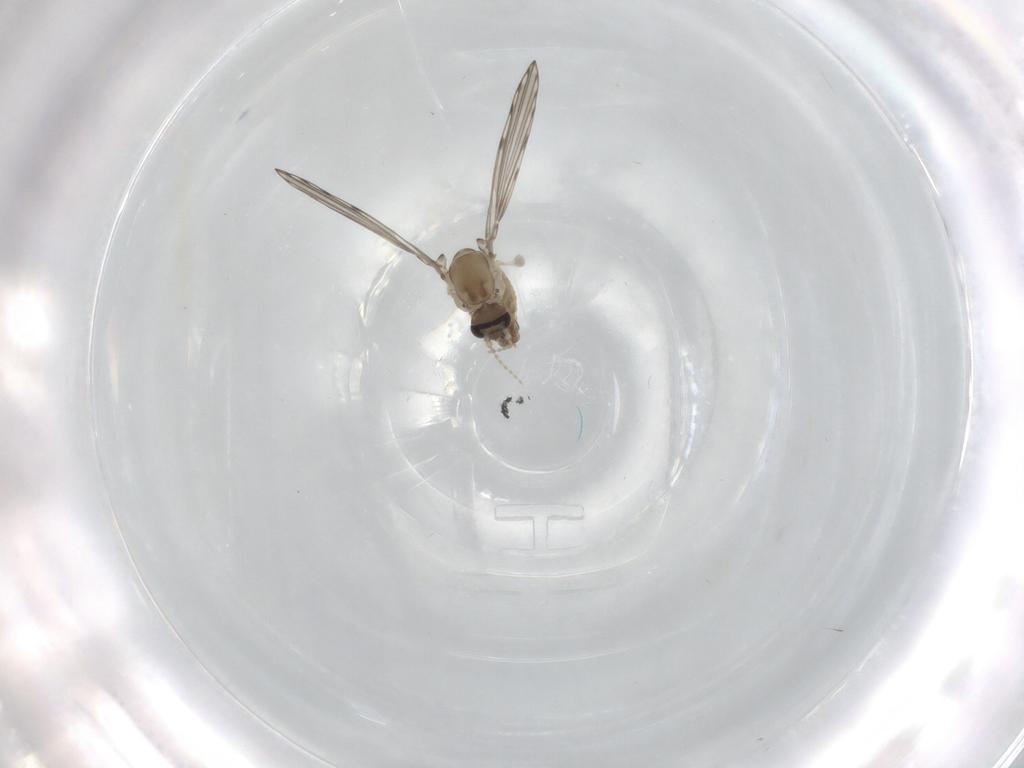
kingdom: Animalia
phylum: Arthropoda
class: Insecta
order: Diptera
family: Psychodidae
